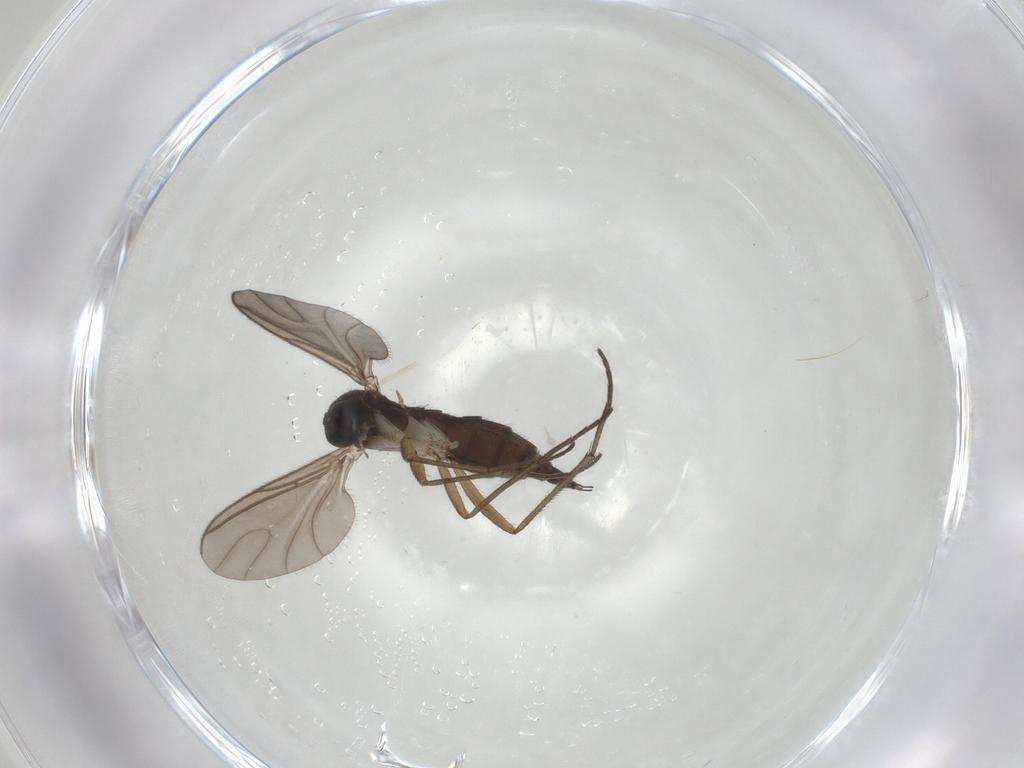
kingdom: Animalia
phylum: Arthropoda
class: Insecta
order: Diptera
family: Sciaridae
